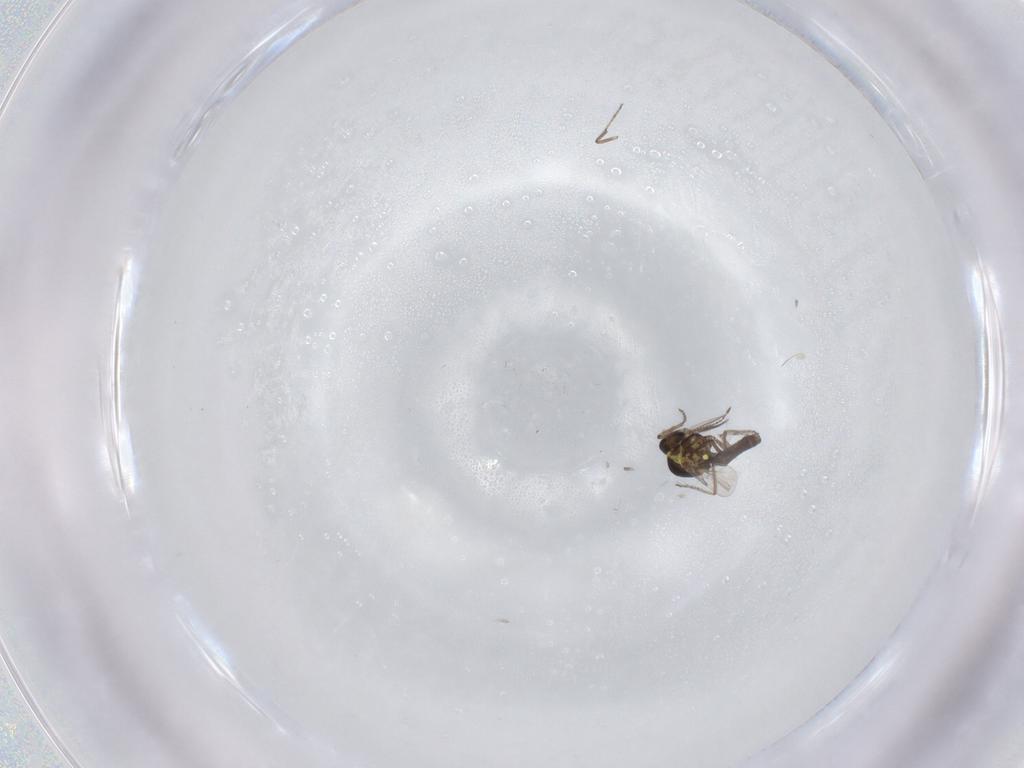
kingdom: Animalia
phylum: Arthropoda
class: Insecta
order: Diptera
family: Ceratopogonidae
